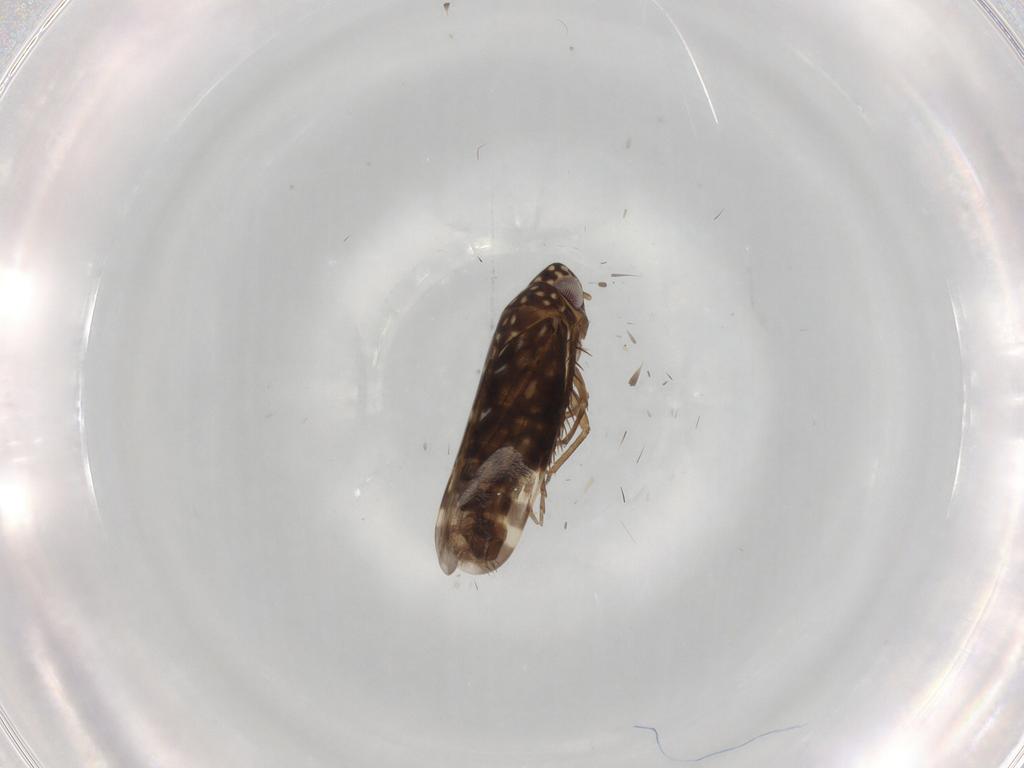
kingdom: Animalia
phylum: Arthropoda
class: Insecta
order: Hemiptera
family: Cicadellidae
